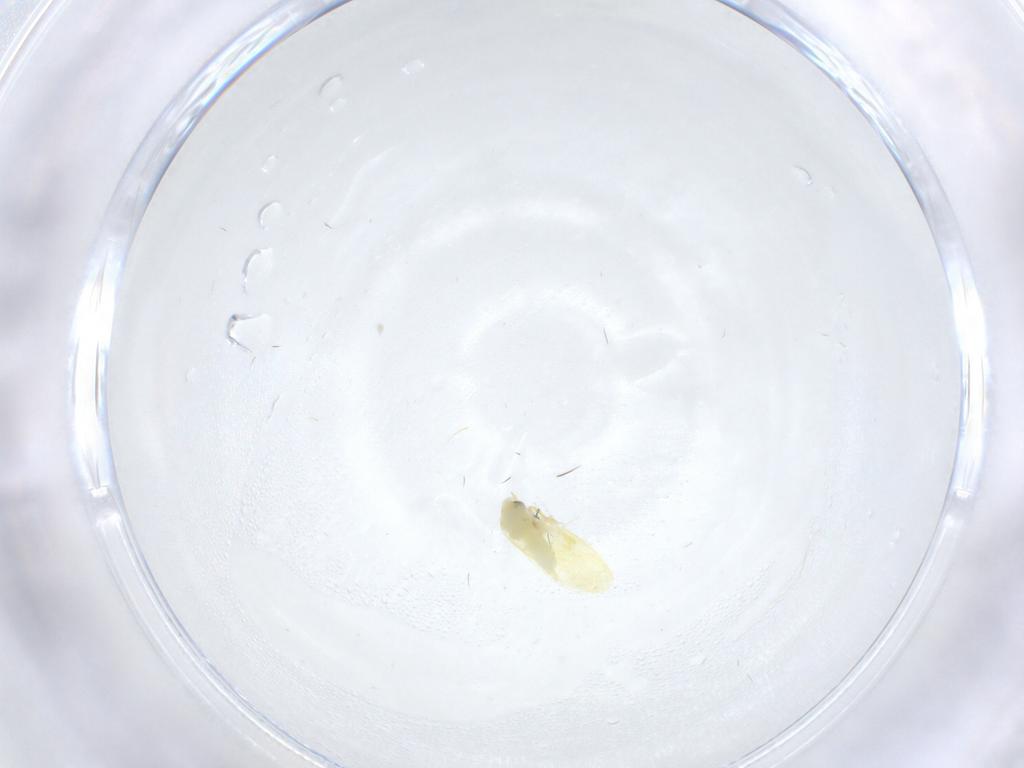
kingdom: Animalia
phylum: Arthropoda
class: Insecta
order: Hemiptera
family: Aleyrodidae
